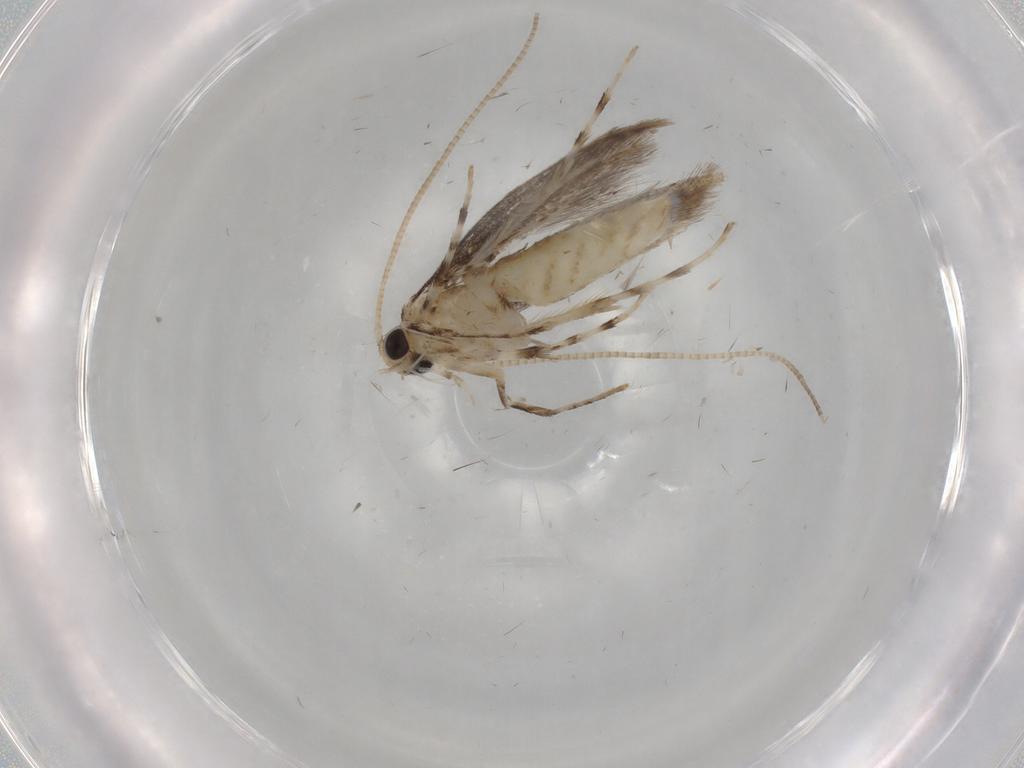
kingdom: Animalia
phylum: Arthropoda
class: Insecta
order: Lepidoptera
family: Gracillariidae
